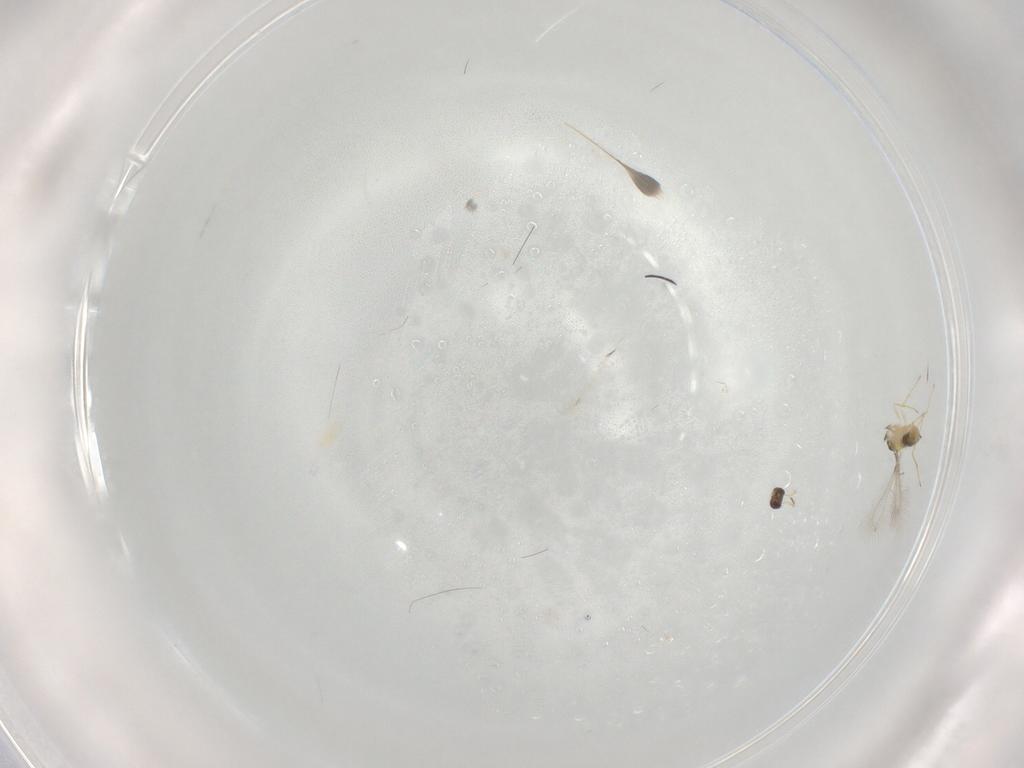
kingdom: Animalia
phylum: Arthropoda
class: Insecta
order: Hymenoptera
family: Mymaridae
